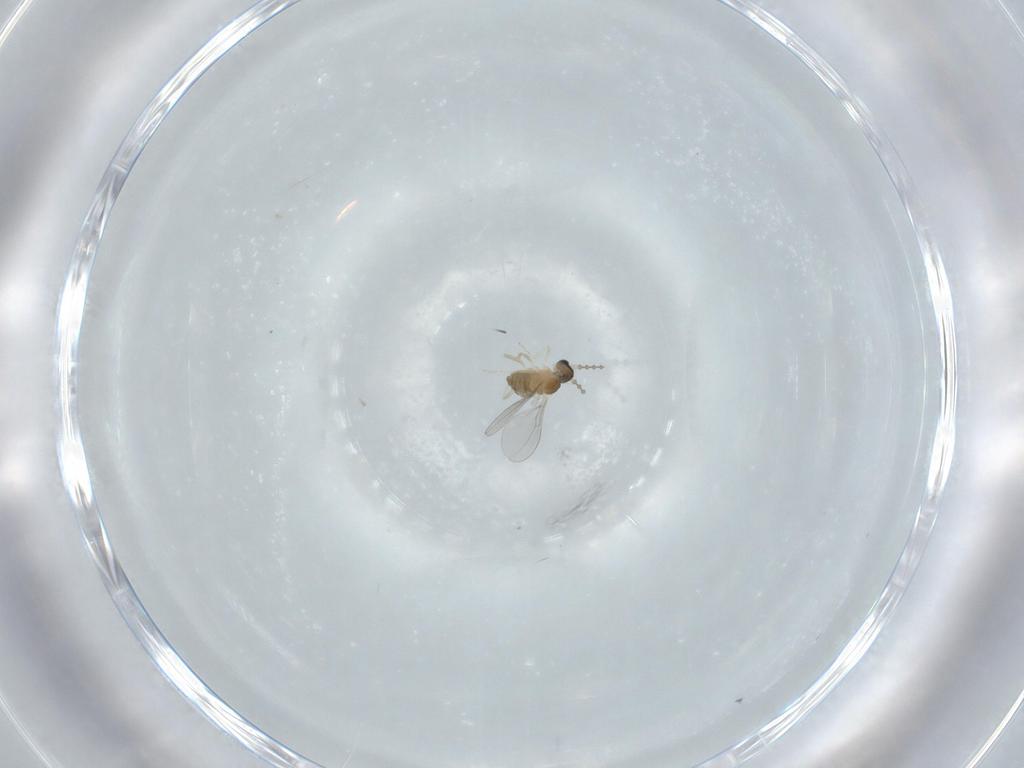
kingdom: Animalia
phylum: Arthropoda
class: Insecta
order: Diptera
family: Cecidomyiidae
